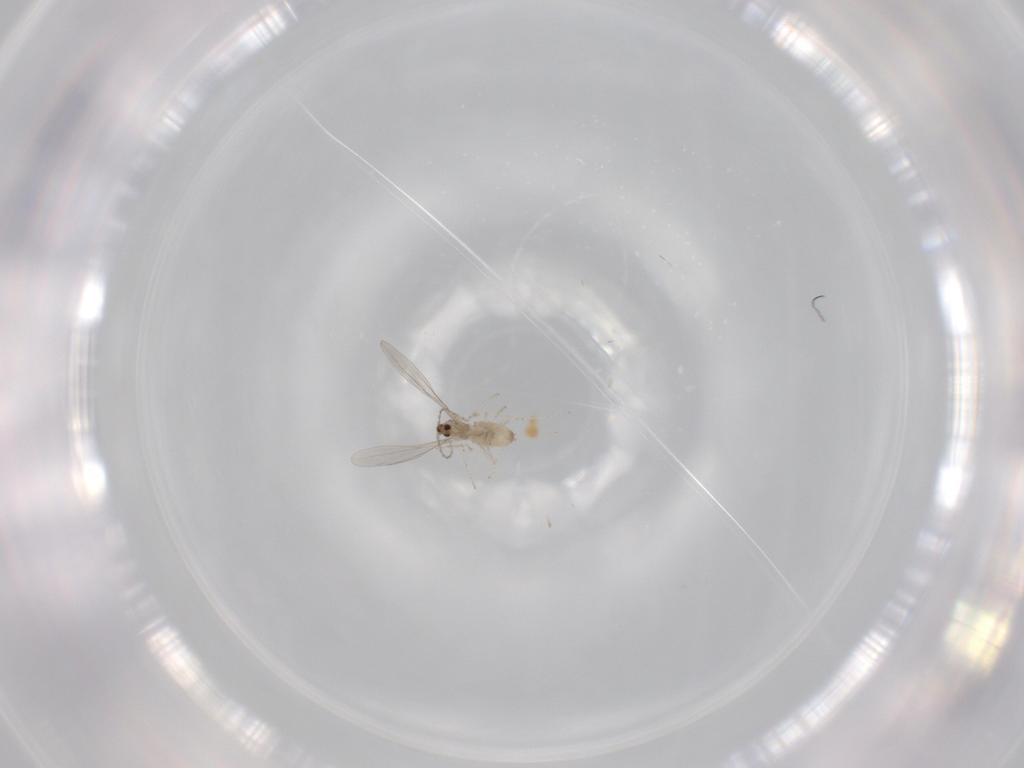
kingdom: Animalia
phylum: Arthropoda
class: Insecta
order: Diptera
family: Cecidomyiidae
